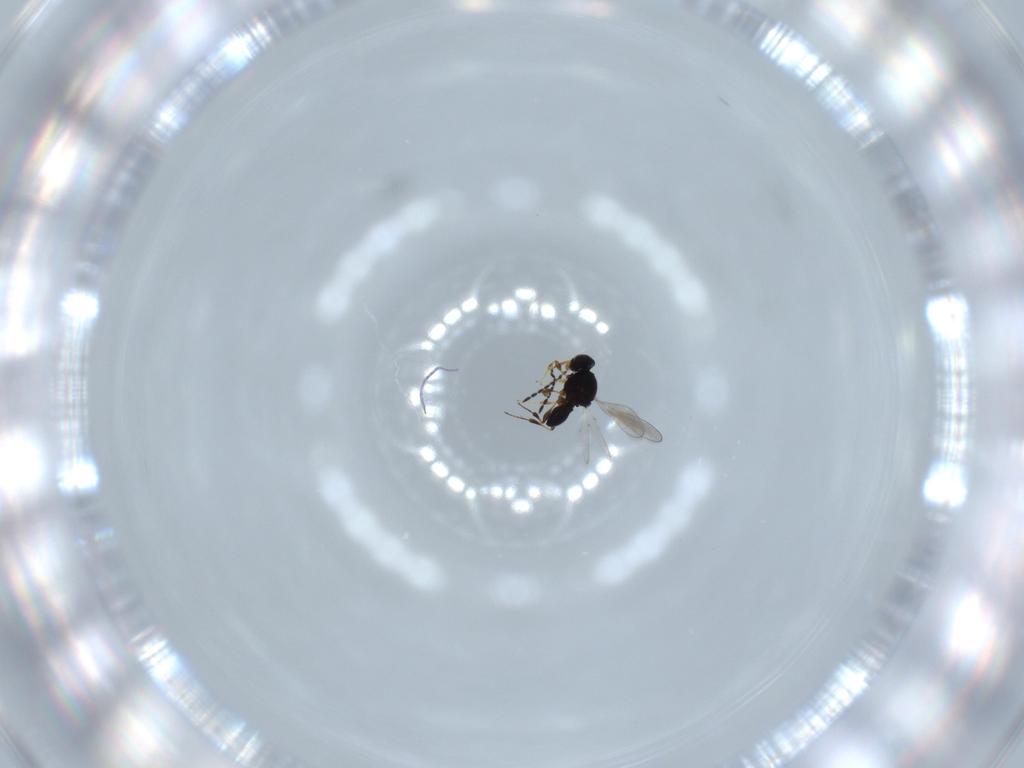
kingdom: Animalia
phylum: Arthropoda
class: Insecta
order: Hymenoptera
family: Platygastridae
